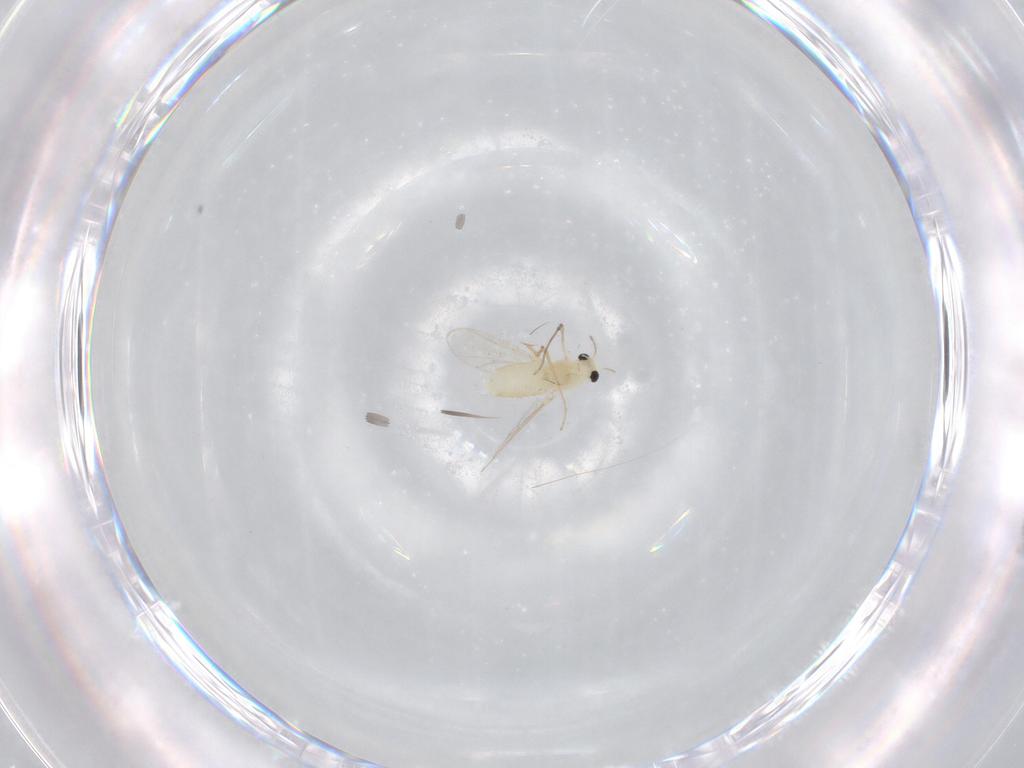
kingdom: Animalia
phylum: Arthropoda
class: Insecta
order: Diptera
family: Chironomidae
